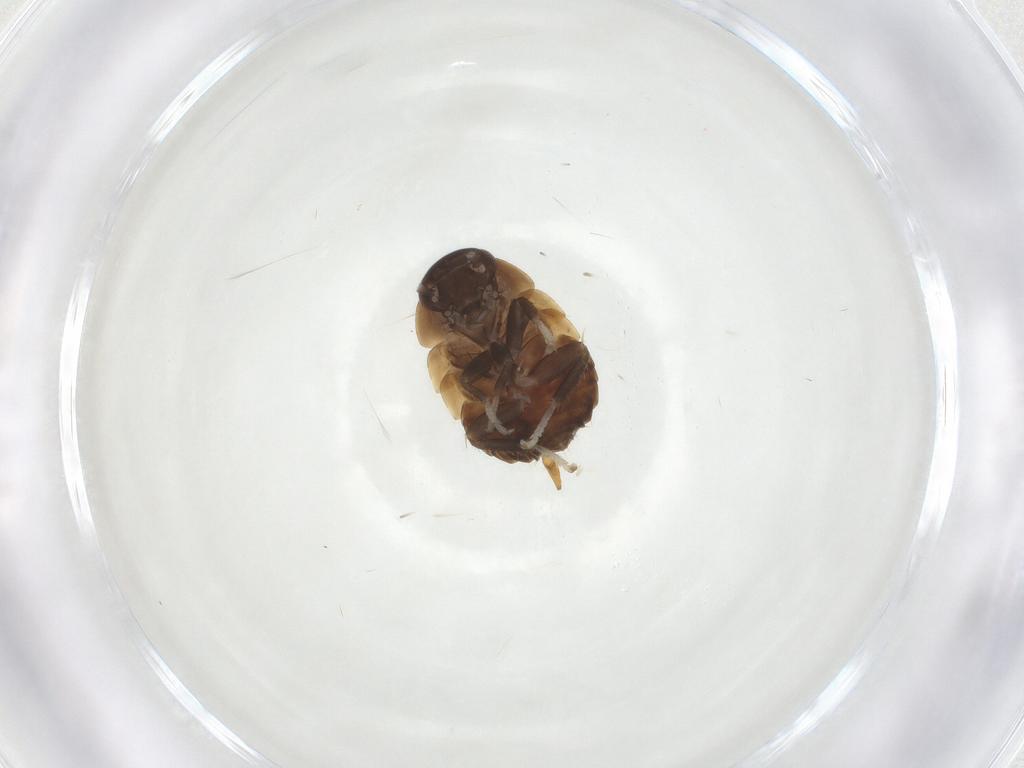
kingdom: Animalia
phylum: Arthropoda
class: Insecta
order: Blattodea
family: Pseudophyllodromiidae
